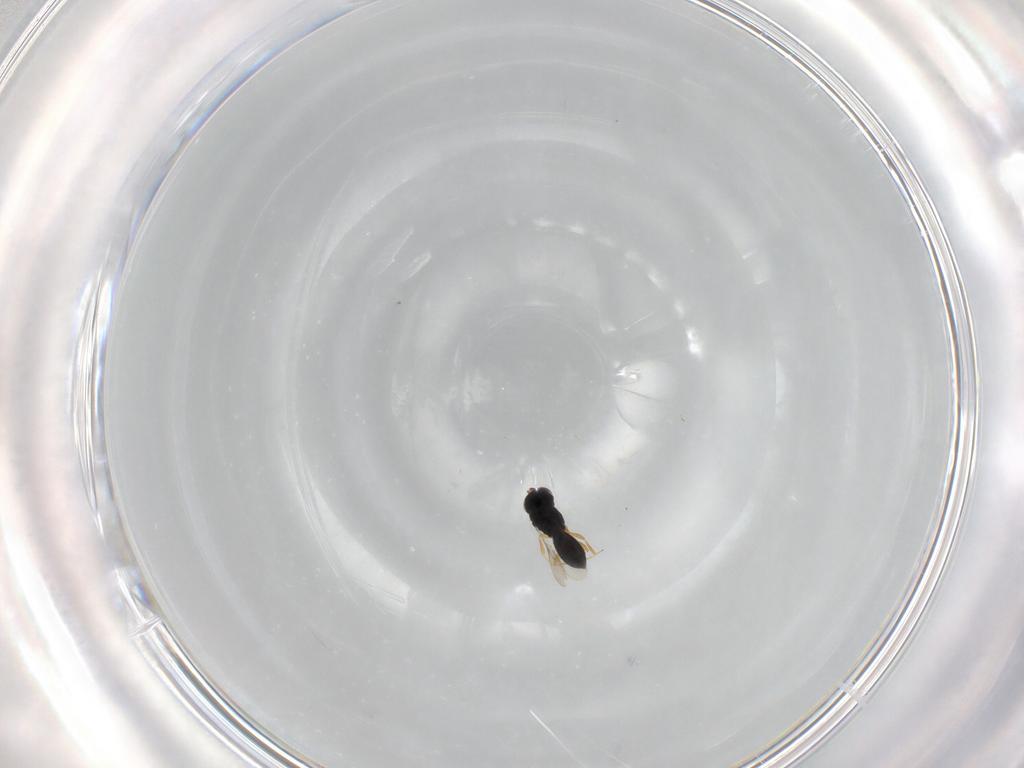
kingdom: Animalia
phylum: Arthropoda
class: Insecta
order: Hymenoptera
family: Scelionidae
